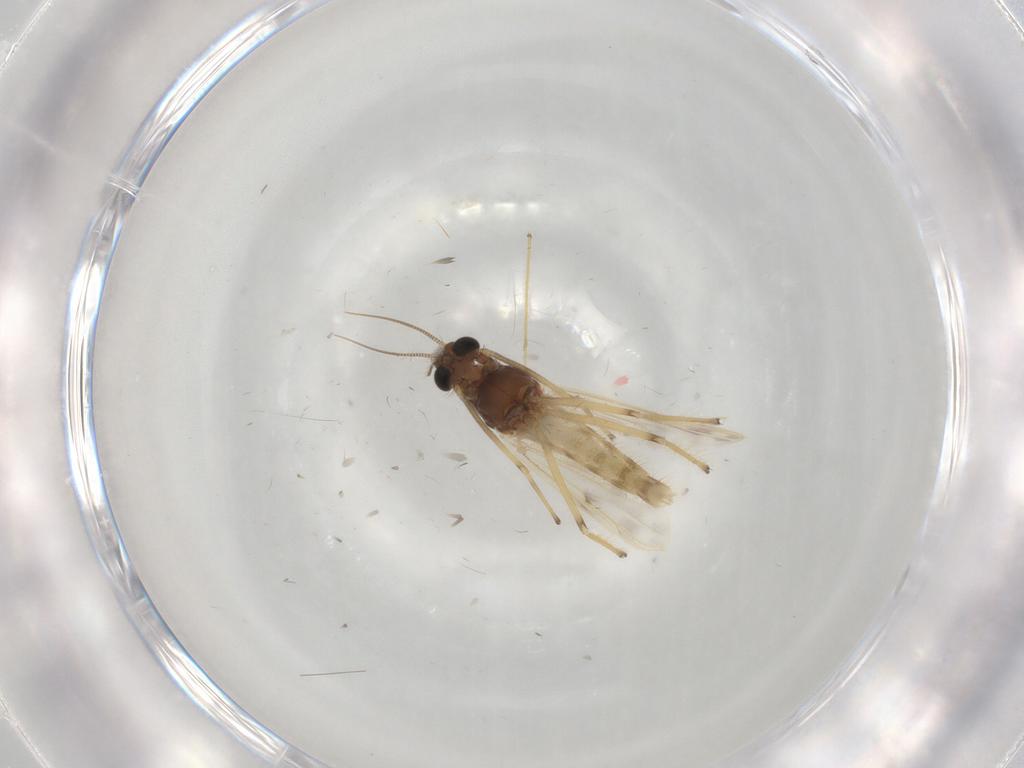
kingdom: Animalia
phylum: Arthropoda
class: Insecta
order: Diptera
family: Phoridae
